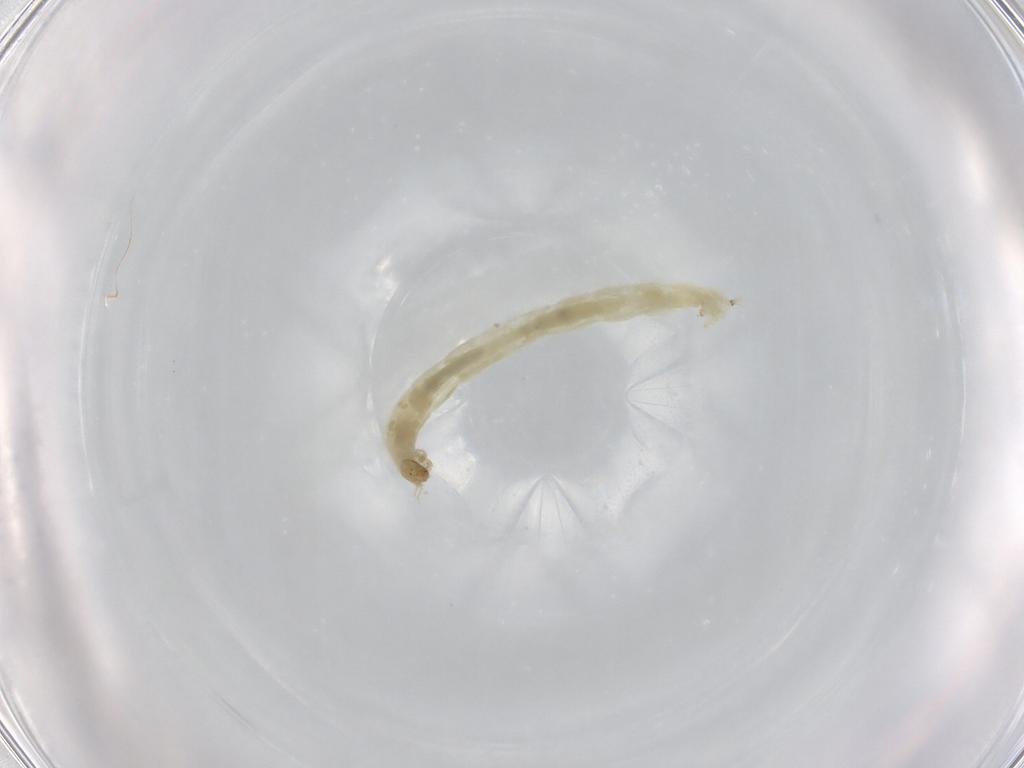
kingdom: Animalia
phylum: Arthropoda
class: Insecta
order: Diptera
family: Chironomidae
